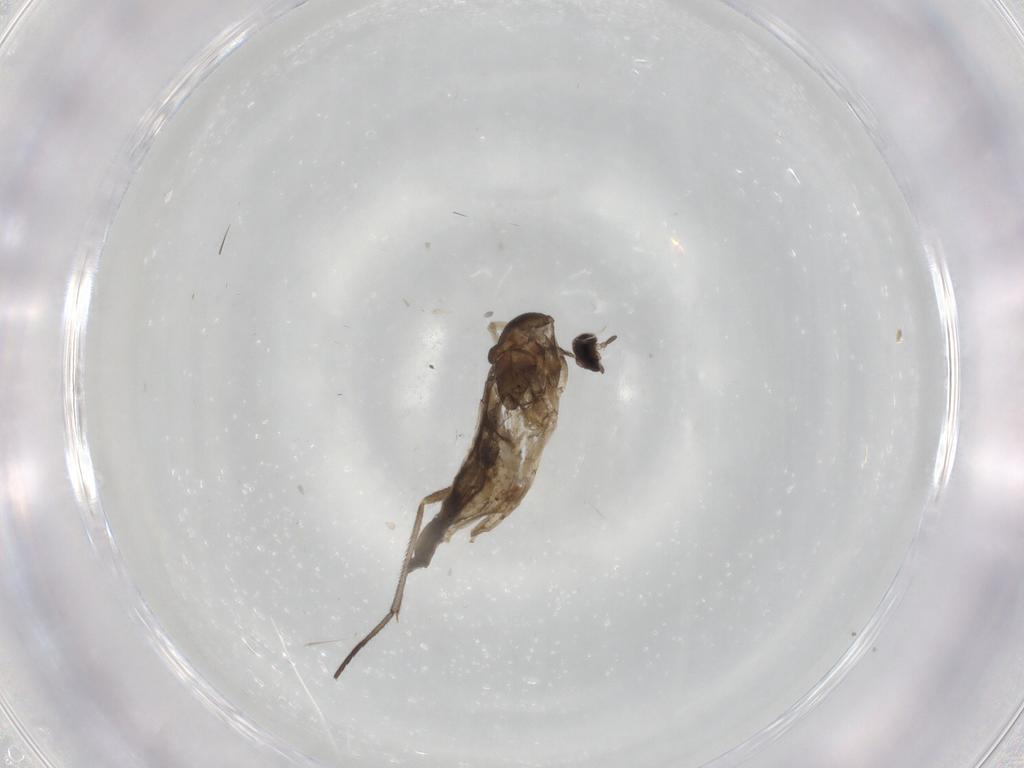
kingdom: Animalia
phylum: Arthropoda
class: Insecta
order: Diptera
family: Cecidomyiidae
